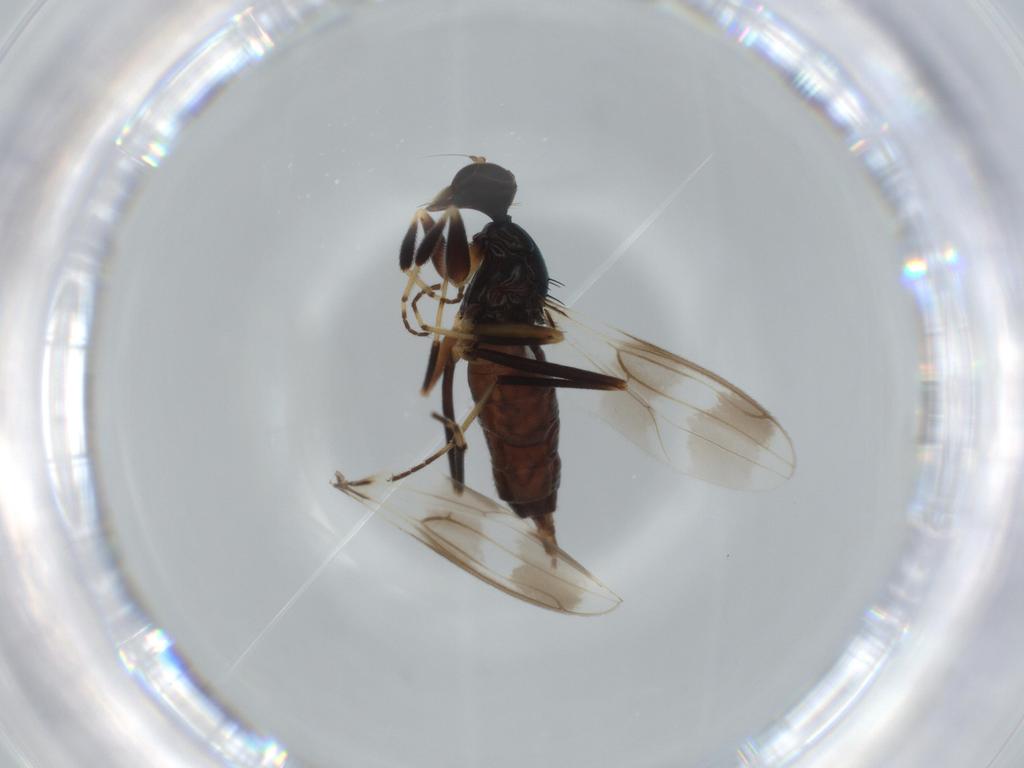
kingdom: Animalia
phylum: Arthropoda
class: Insecta
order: Diptera
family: Hybotidae
